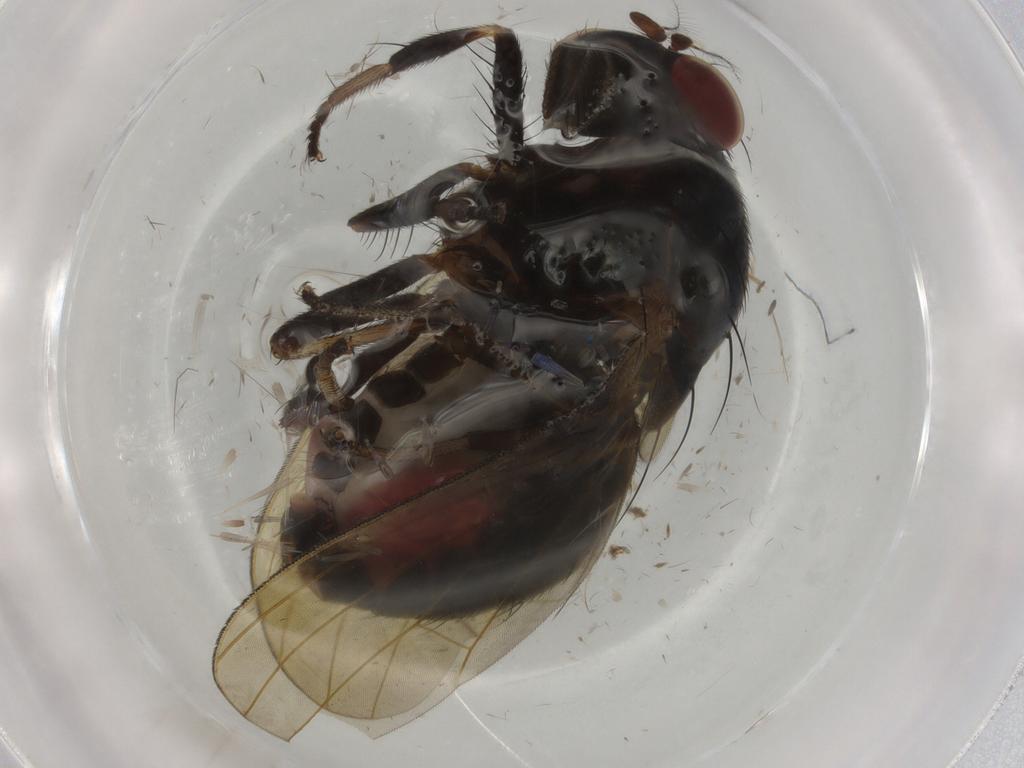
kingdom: Animalia
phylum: Arthropoda
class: Insecta
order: Diptera
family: Lauxaniidae
